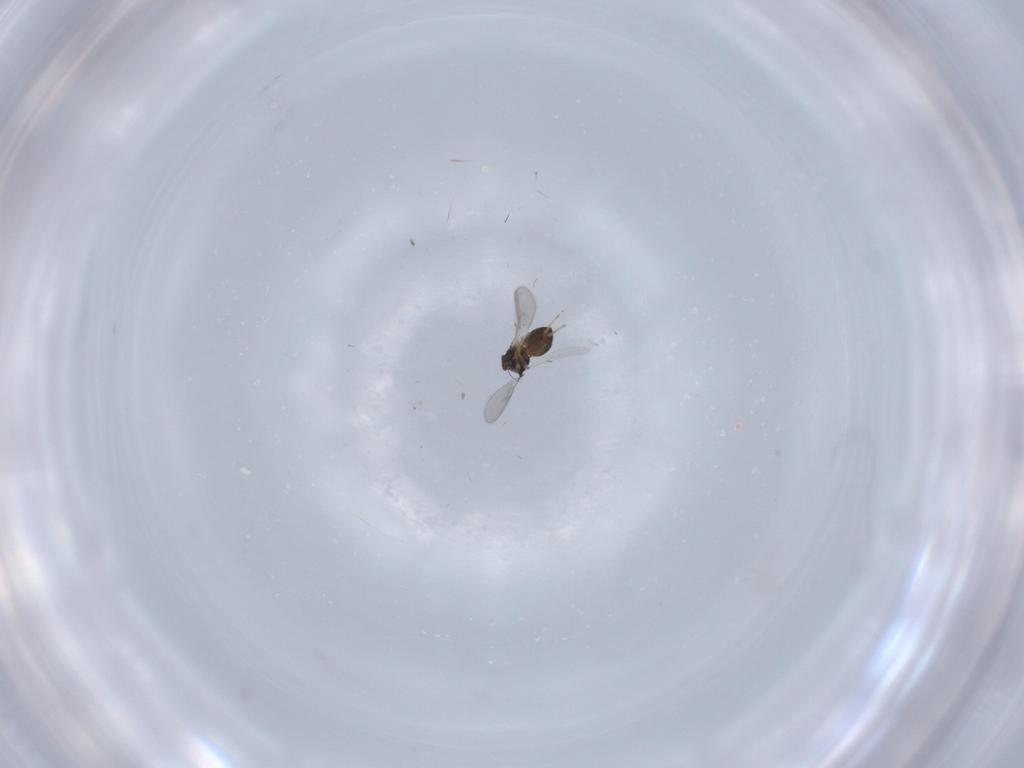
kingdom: Animalia
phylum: Arthropoda
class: Insecta
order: Hymenoptera
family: Scelionidae
